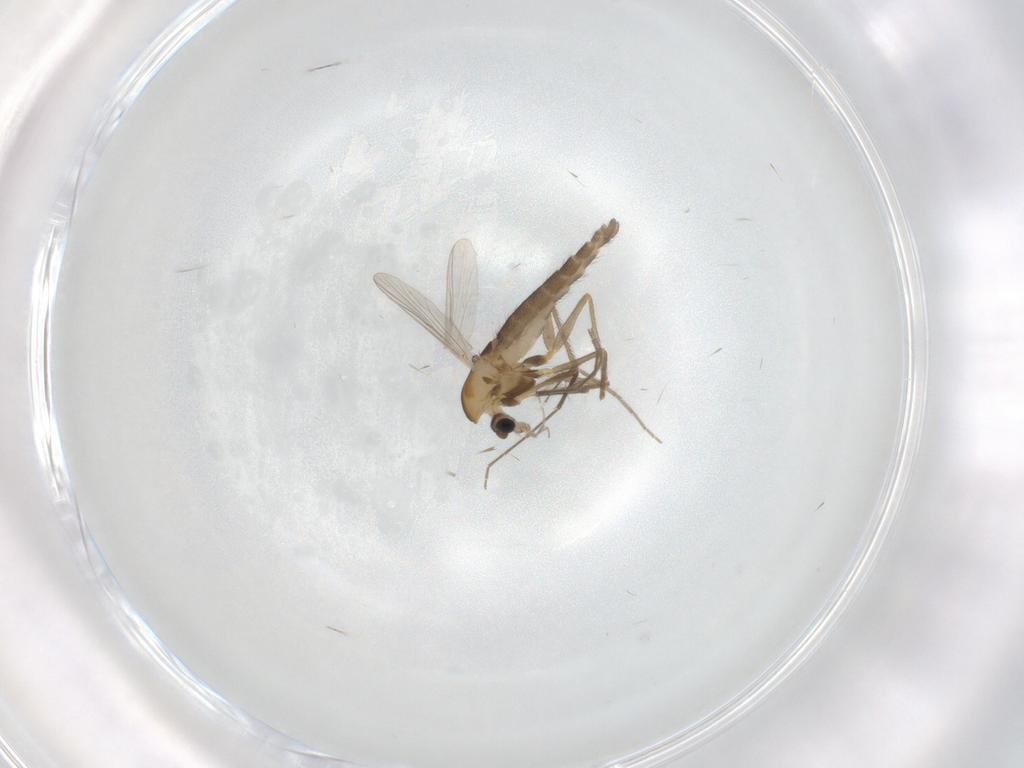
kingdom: Animalia
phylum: Arthropoda
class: Insecta
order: Diptera
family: Chironomidae
